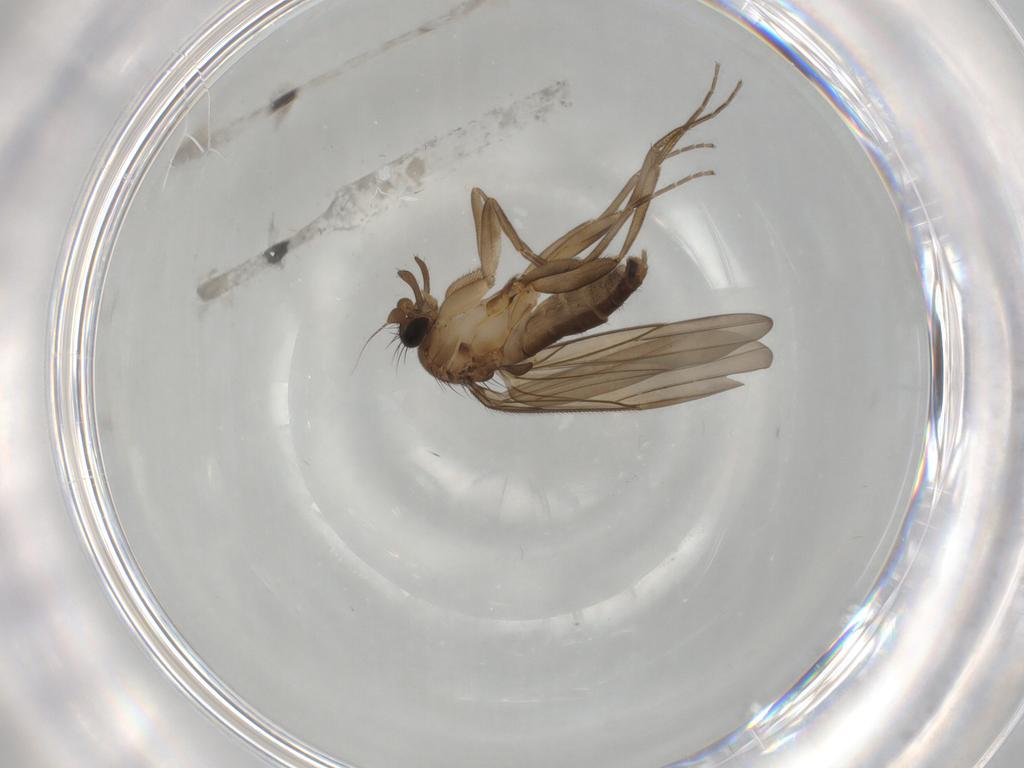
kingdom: Animalia
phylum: Arthropoda
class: Insecta
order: Diptera
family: Phoridae
